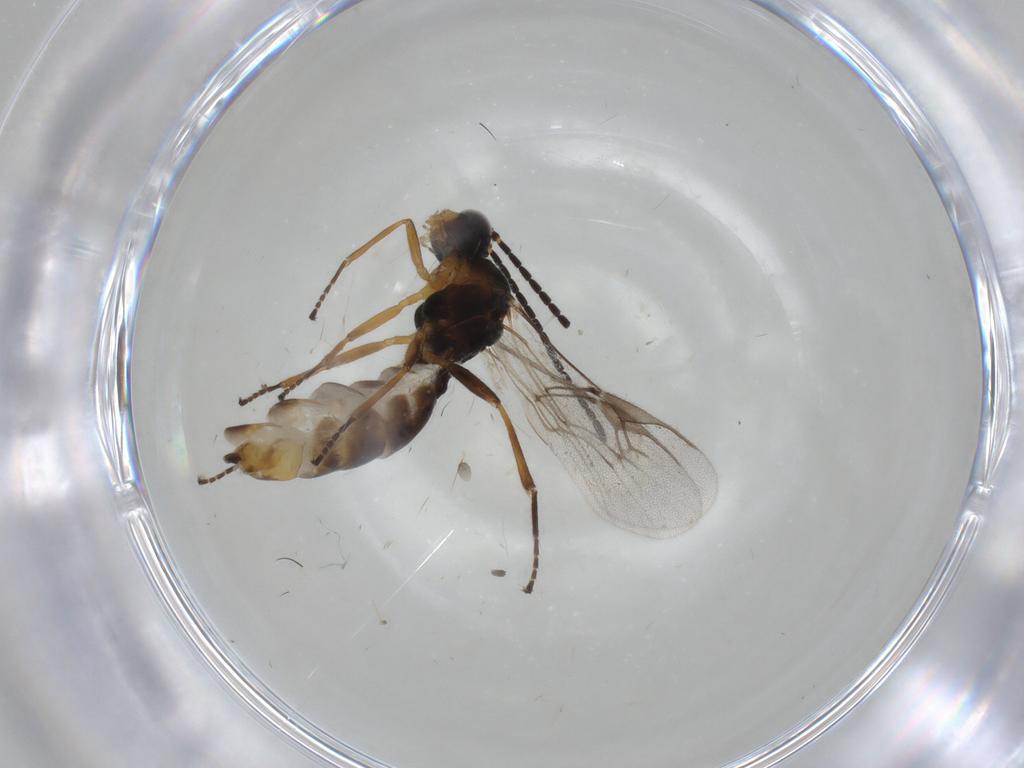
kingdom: Animalia
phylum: Arthropoda
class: Insecta
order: Hymenoptera
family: Braconidae
